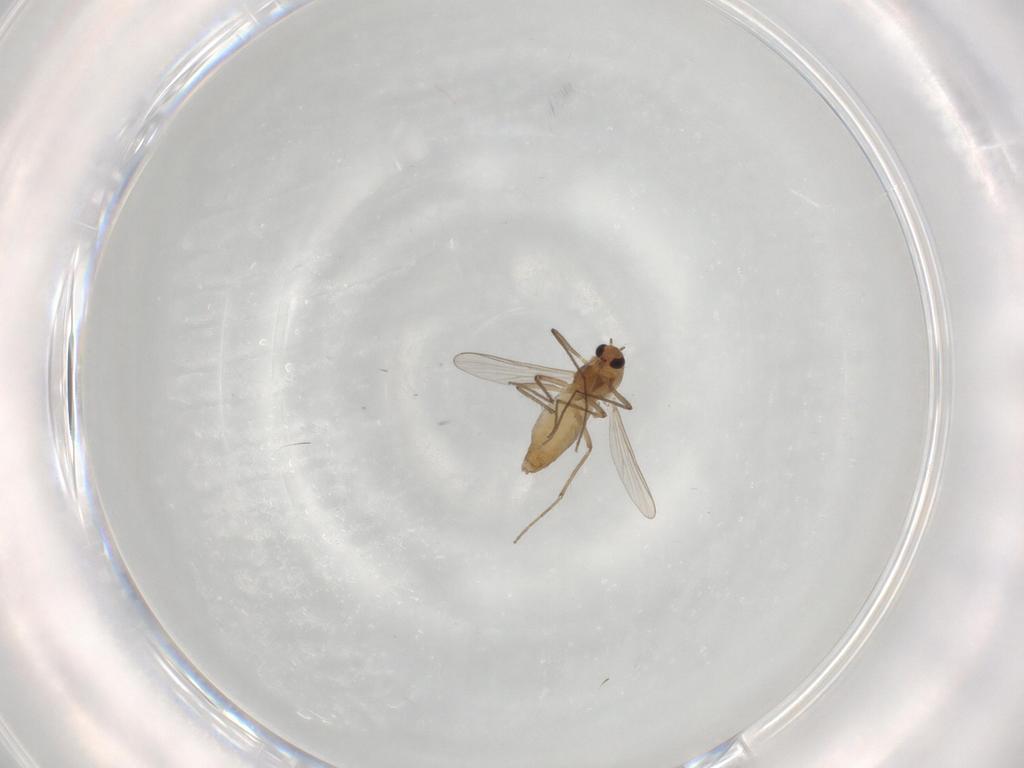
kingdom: Animalia
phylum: Arthropoda
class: Insecta
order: Diptera
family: Chironomidae
